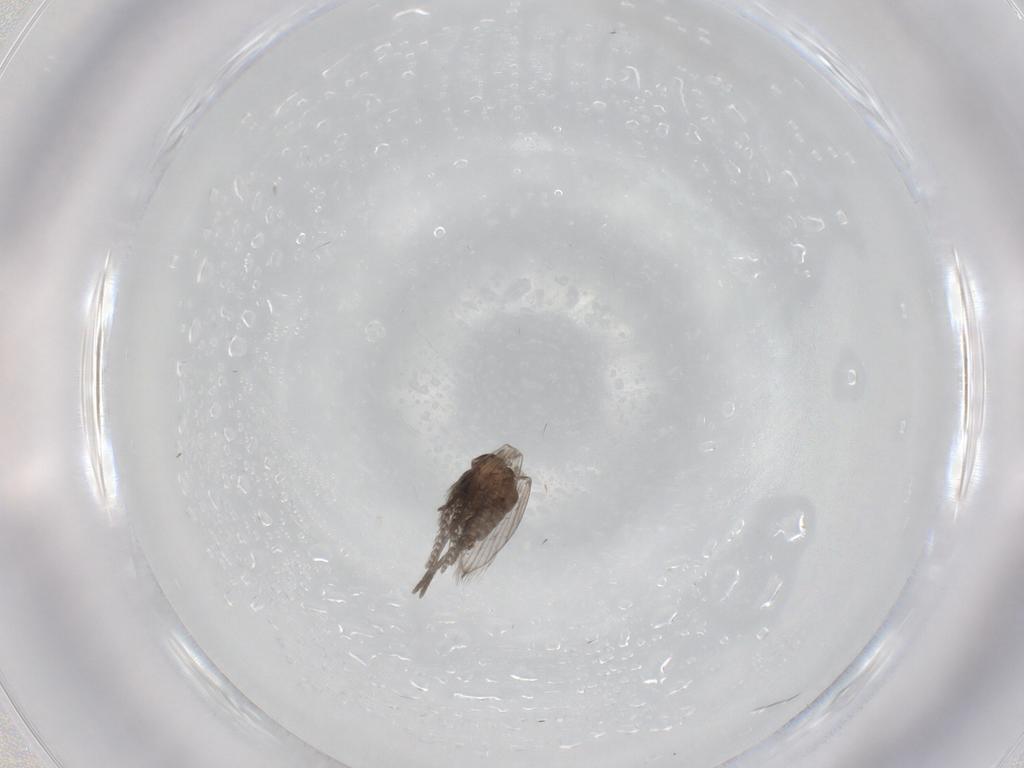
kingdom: Animalia
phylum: Arthropoda
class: Insecta
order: Diptera
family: Psychodidae
